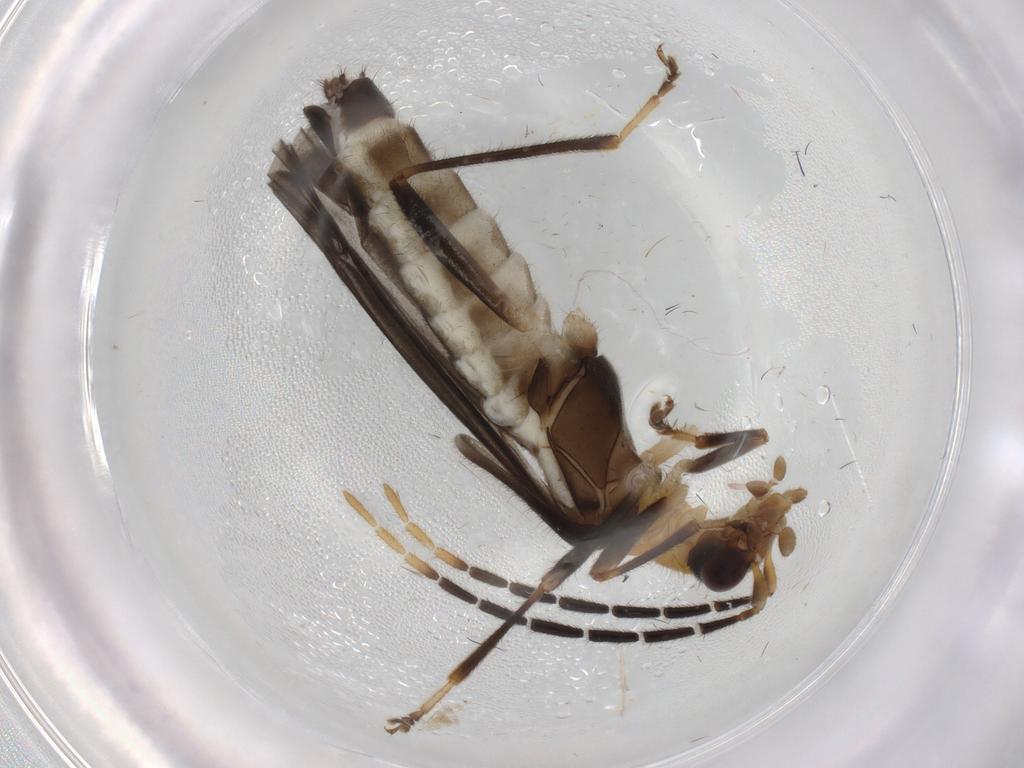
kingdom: Animalia
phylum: Arthropoda
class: Insecta
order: Coleoptera
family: Cantharidae
